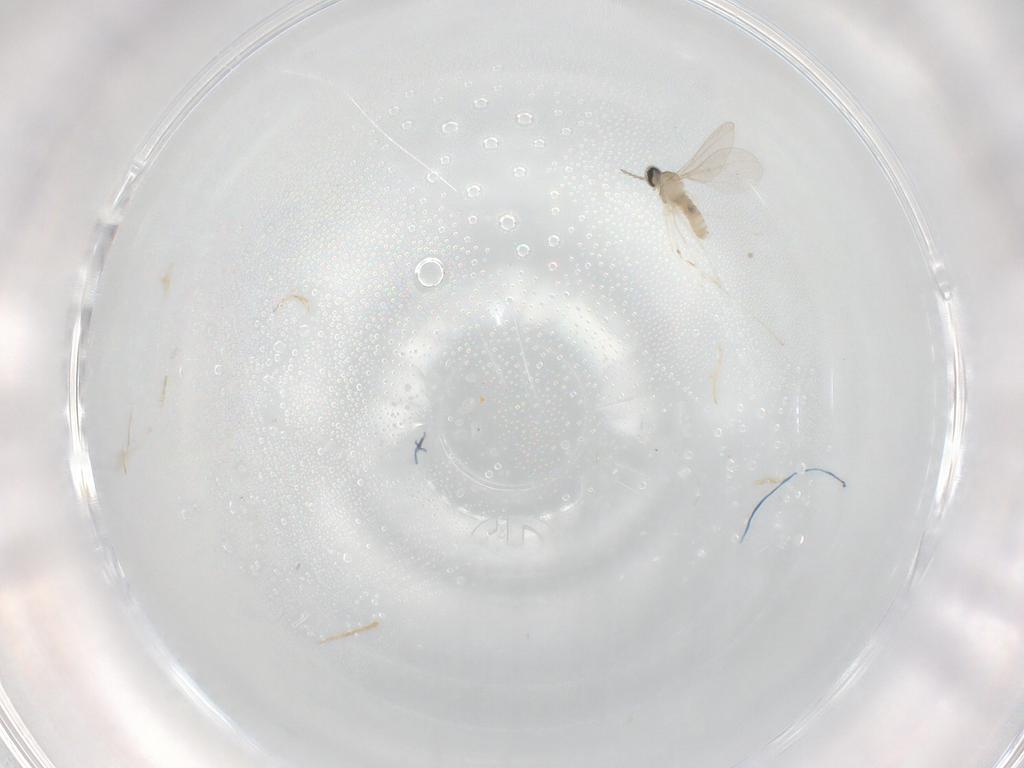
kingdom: Animalia
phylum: Arthropoda
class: Insecta
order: Diptera
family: Cecidomyiidae
